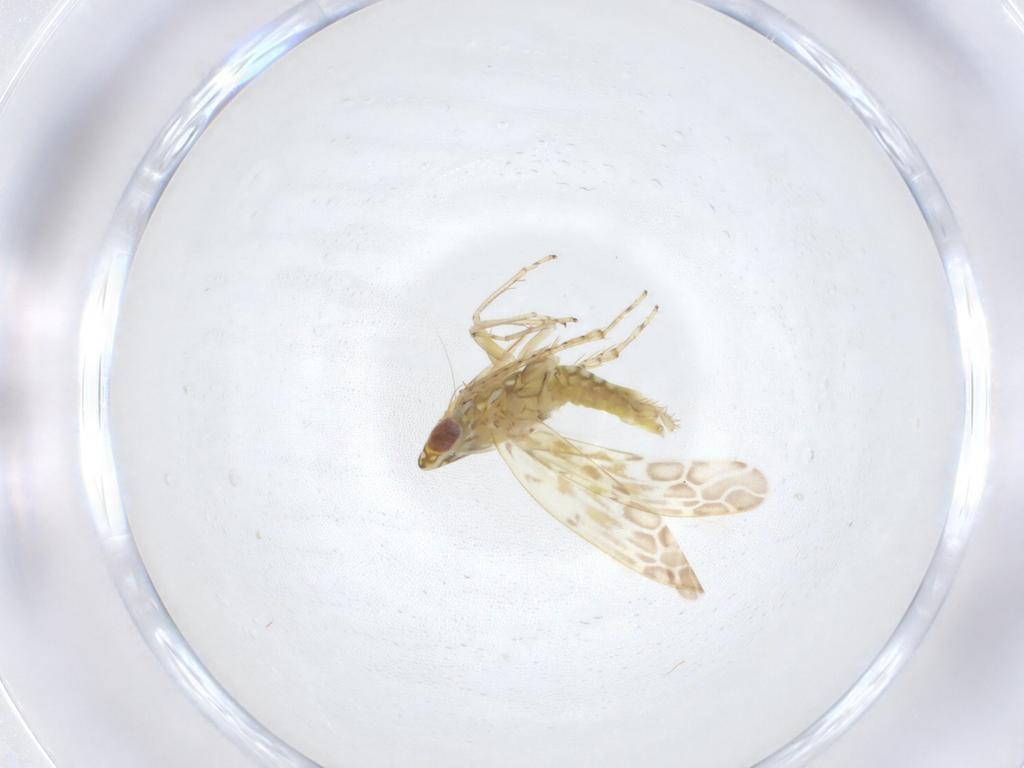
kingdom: Animalia
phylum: Arthropoda
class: Insecta
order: Hemiptera
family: Cicadellidae
